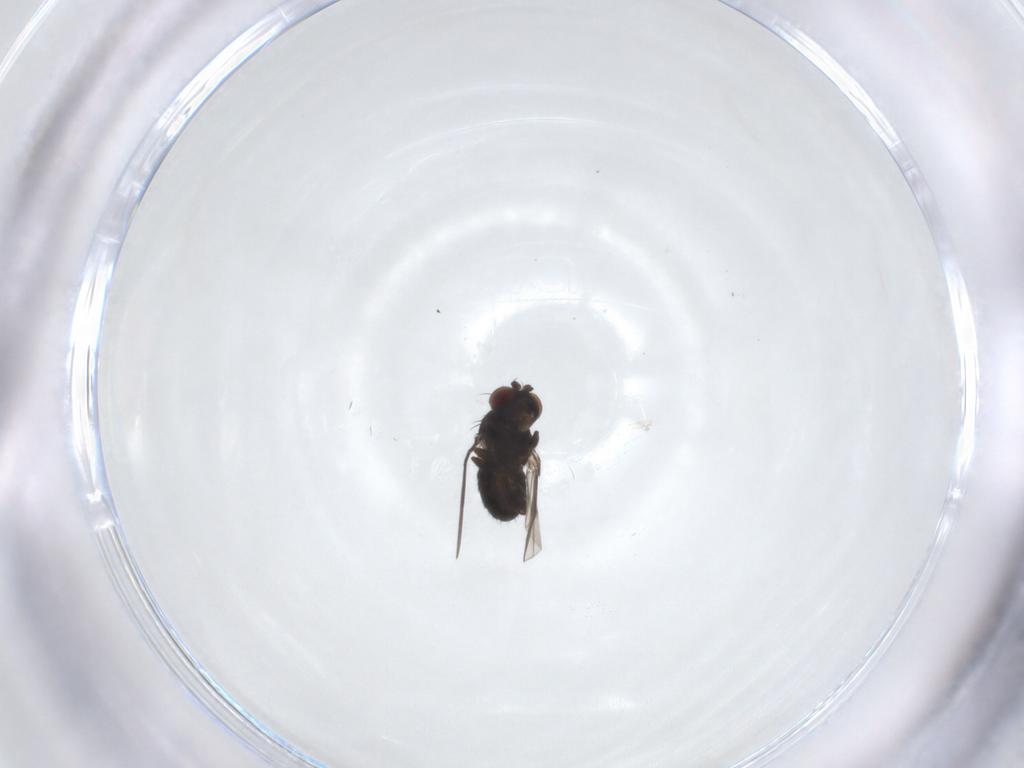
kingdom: Animalia
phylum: Arthropoda
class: Insecta
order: Diptera
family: Ephydridae
